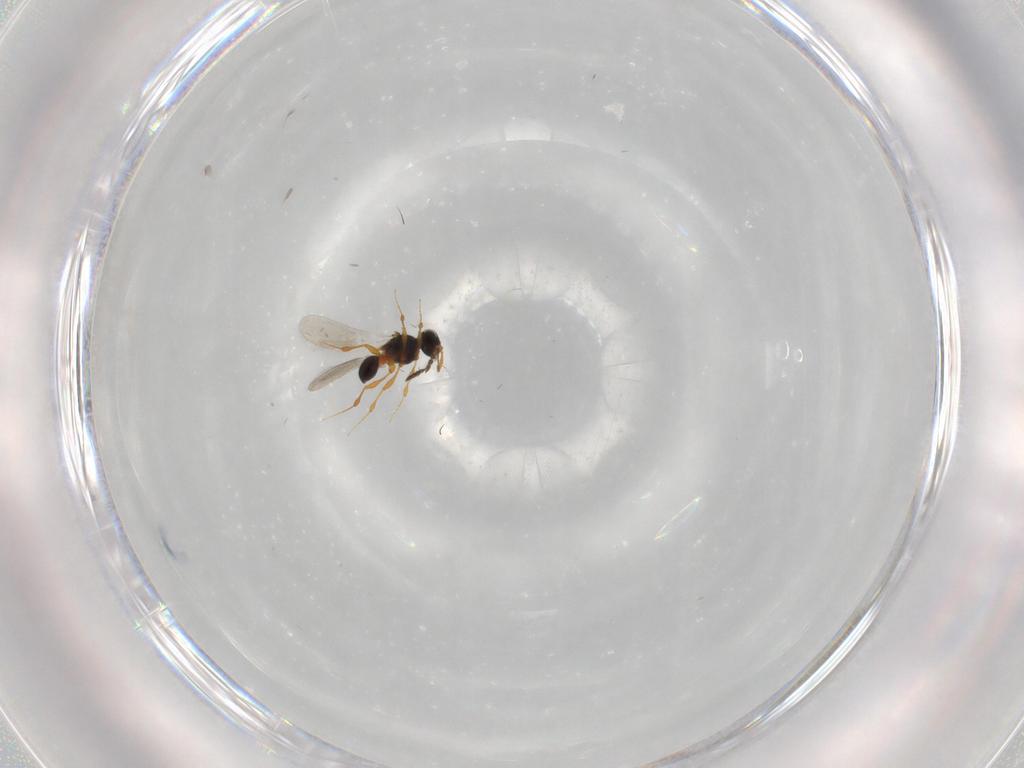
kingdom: Animalia
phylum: Arthropoda
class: Insecta
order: Hymenoptera
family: Platygastridae
